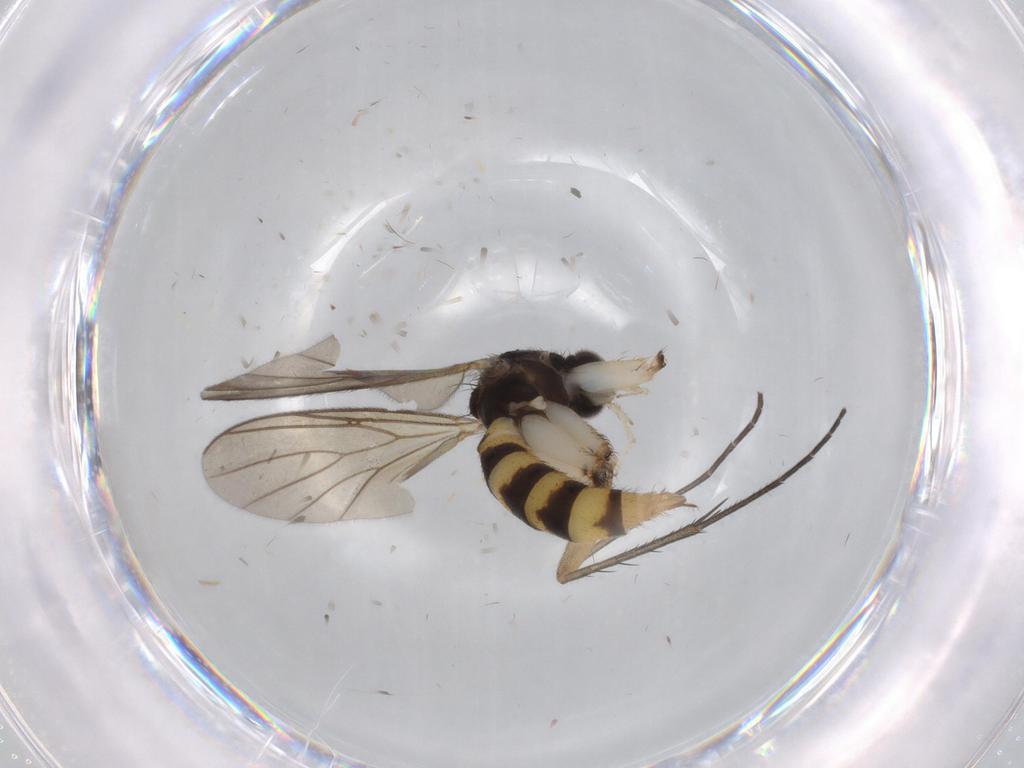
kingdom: Animalia
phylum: Arthropoda
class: Insecta
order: Diptera
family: Mycetophilidae
